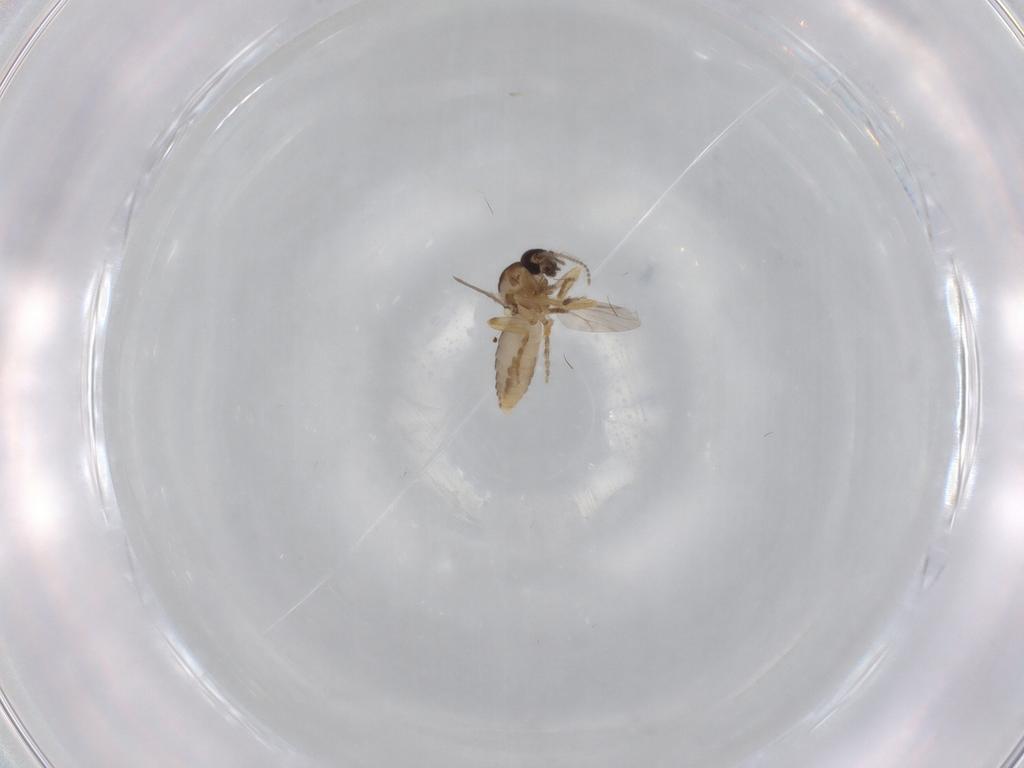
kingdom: Animalia
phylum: Arthropoda
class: Insecta
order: Diptera
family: Ceratopogonidae
